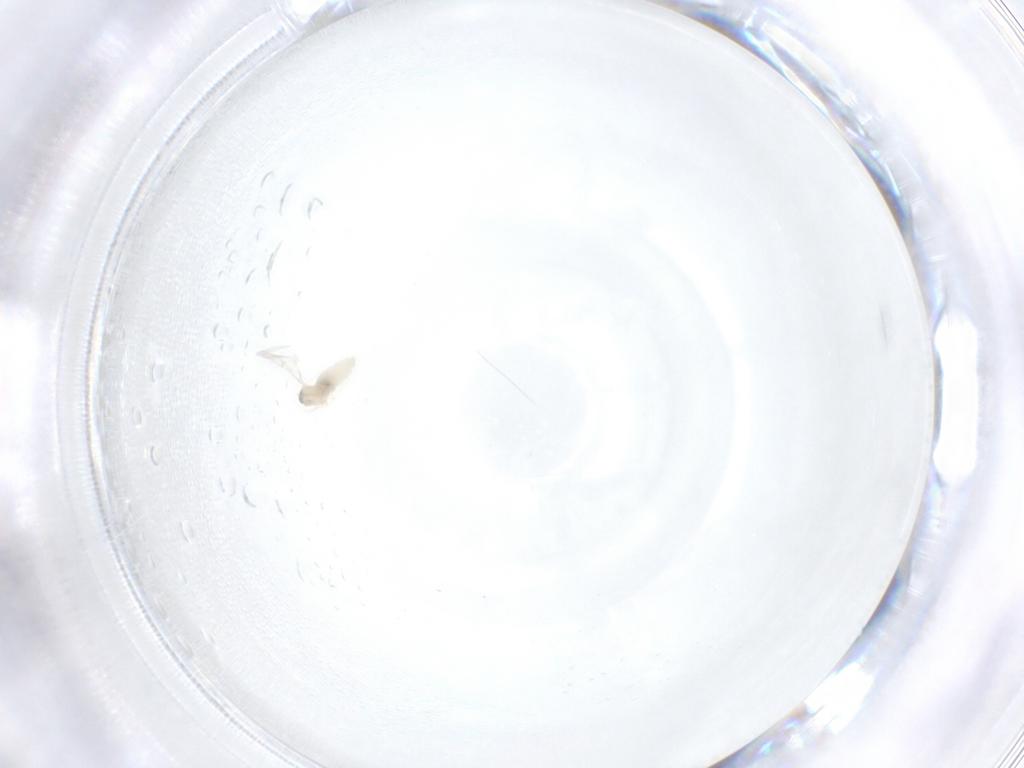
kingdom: Animalia
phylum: Arthropoda
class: Insecta
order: Diptera
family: Cecidomyiidae
